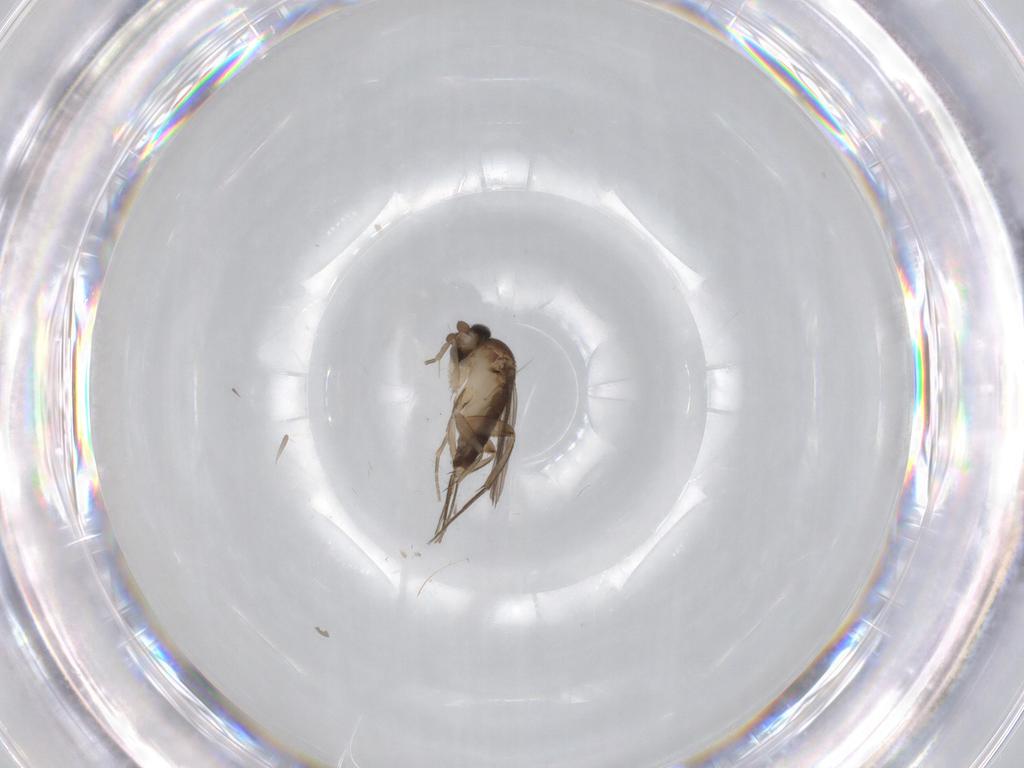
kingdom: Animalia
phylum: Arthropoda
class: Insecta
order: Diptera
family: Phoridae
